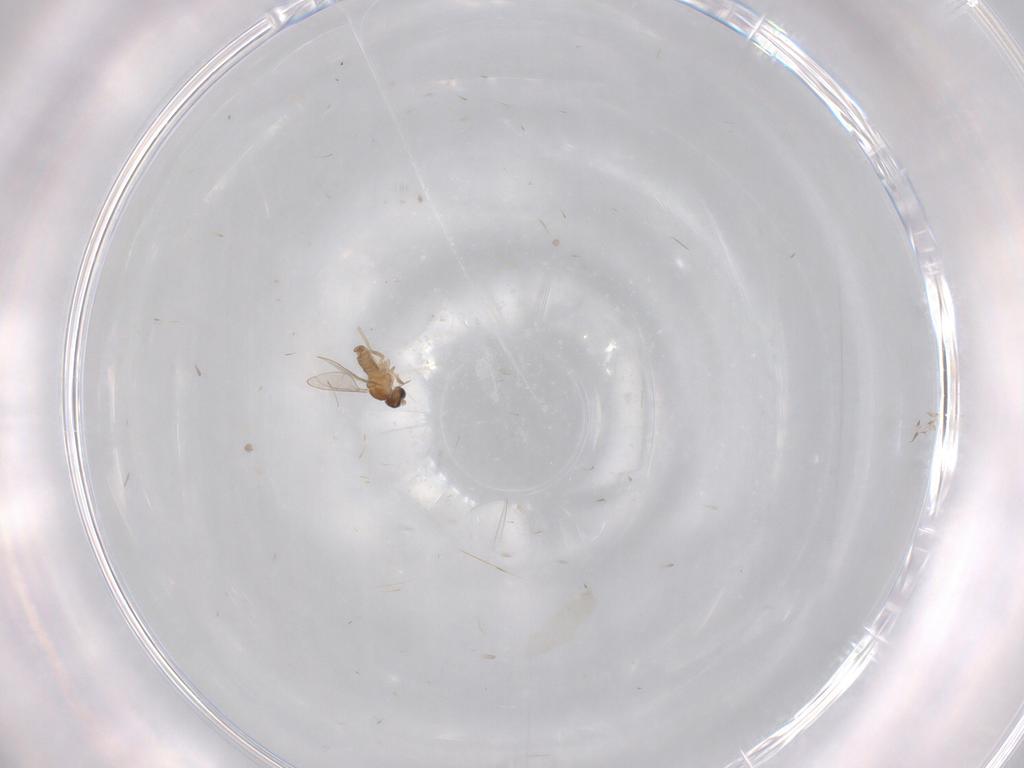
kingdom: Animalia
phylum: Arthropoda
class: Insecta
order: Diptera
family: Cecidomyiidae
